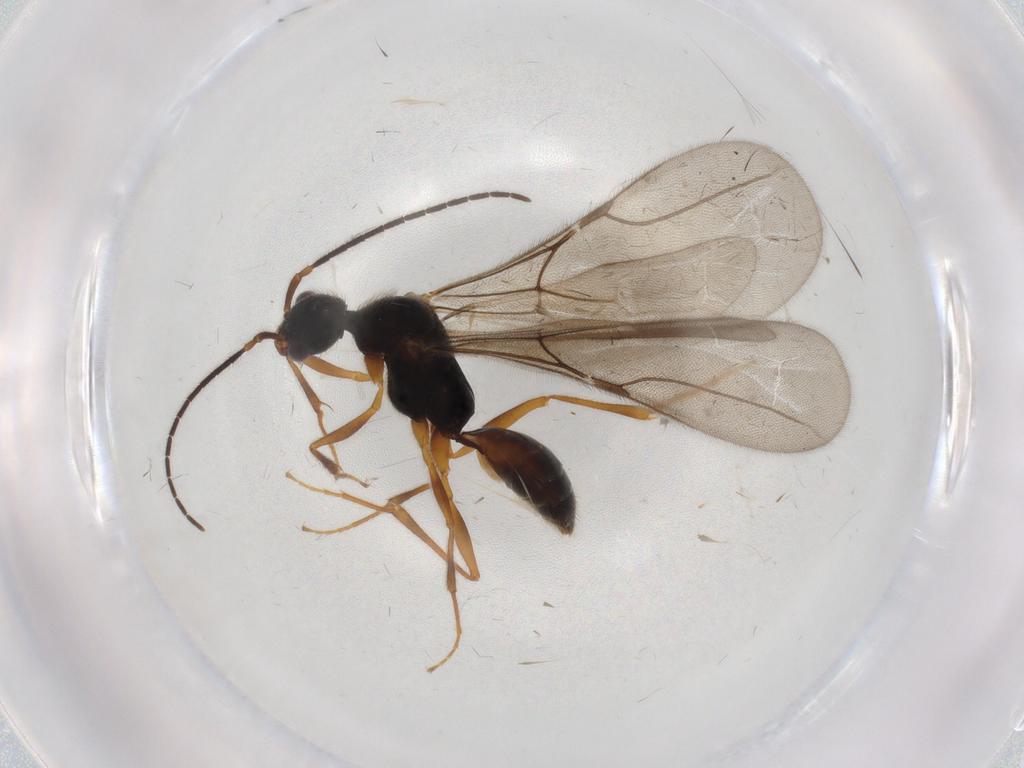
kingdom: Animalia
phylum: Arthropoda
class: Insecta
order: Hymenoptera
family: Bethylidae
